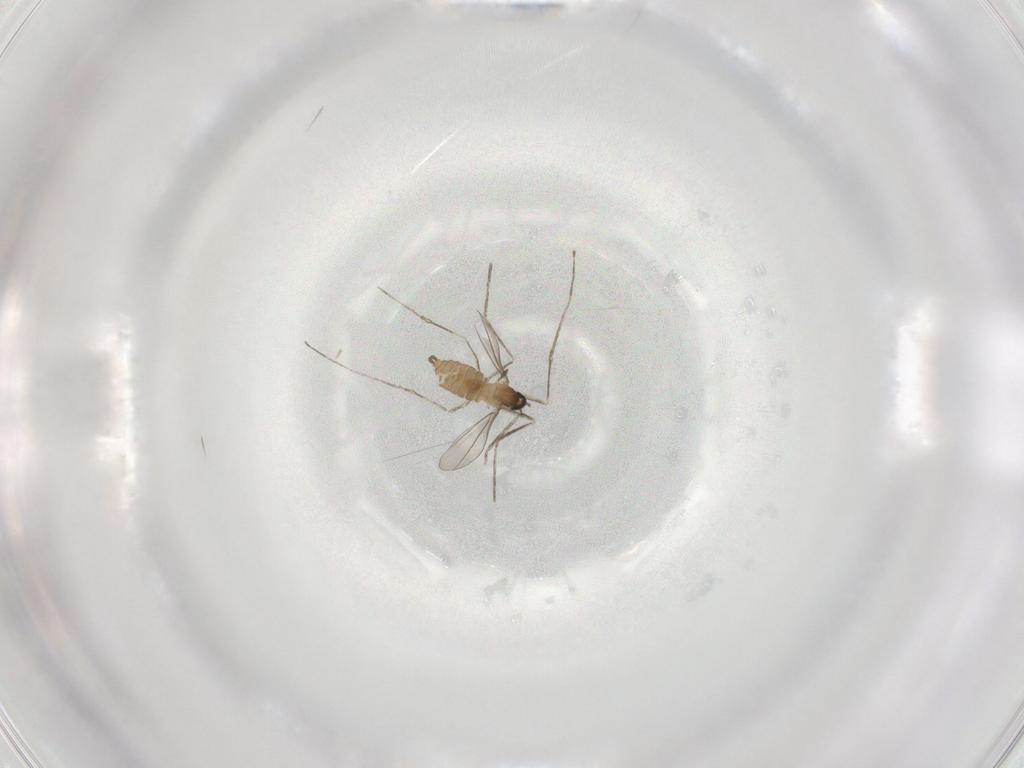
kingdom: Animalia
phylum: Arthropoda
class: Insecta
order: Diptera
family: Cecidomyiidae
